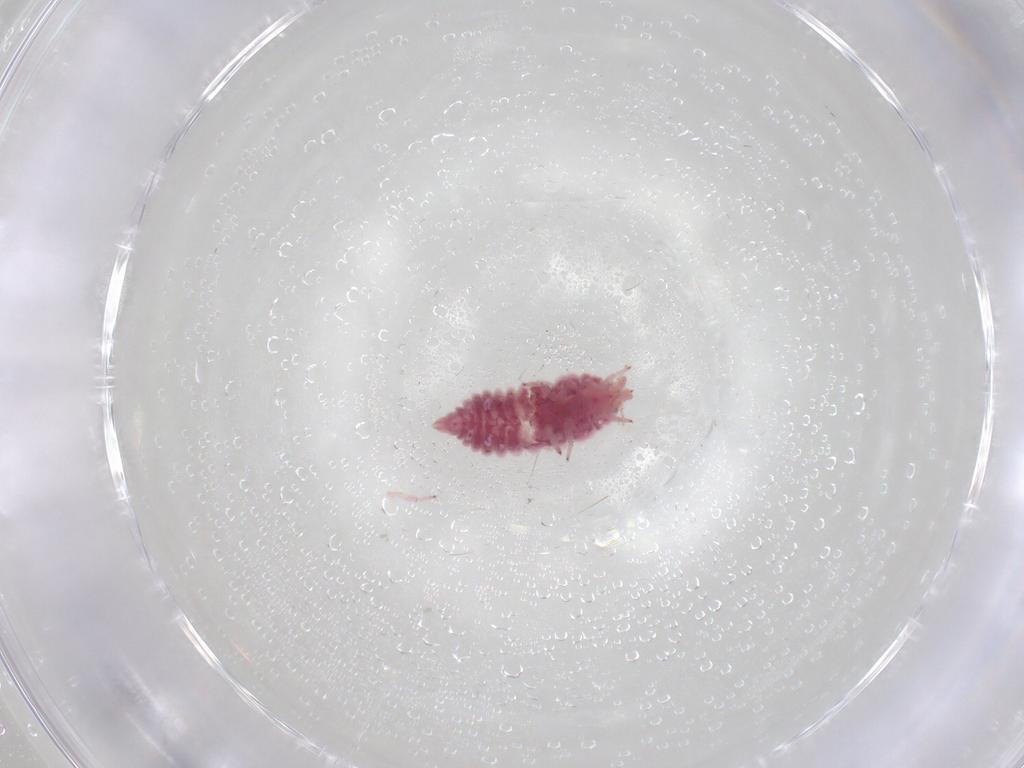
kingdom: Animalia
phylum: Arthropoda
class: Insecta
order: Neuroptera
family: Coniopterygidae
